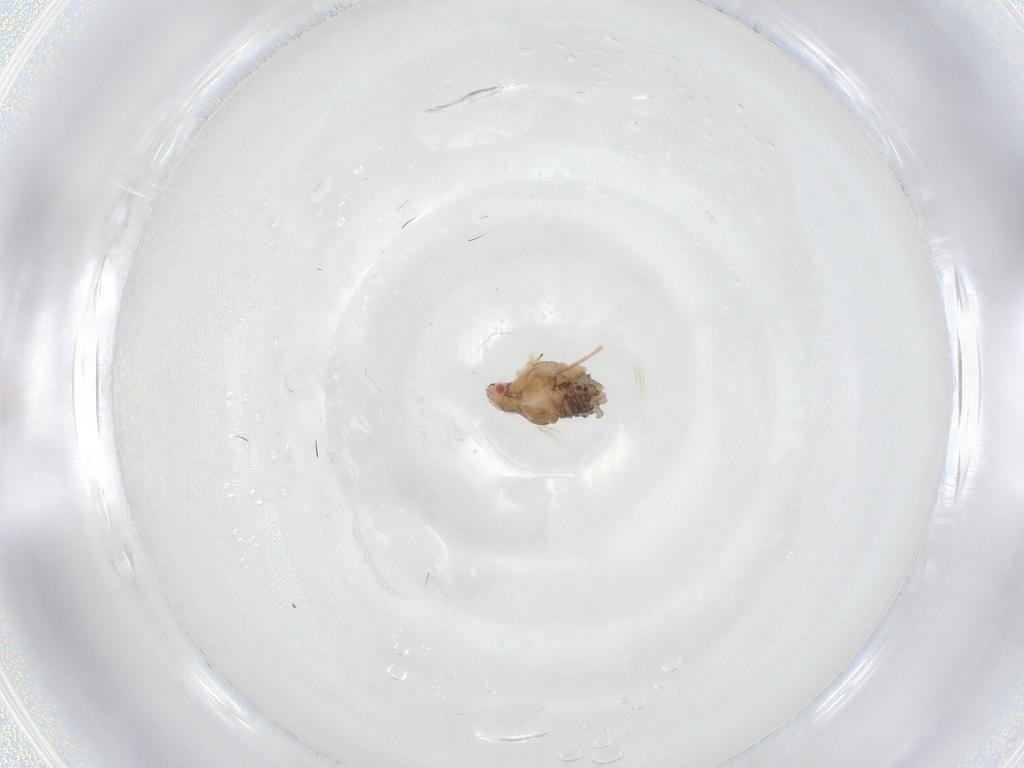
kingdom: Animalia
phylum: Arthropoda
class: Insecta
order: Hemiptera
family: Aphididae
